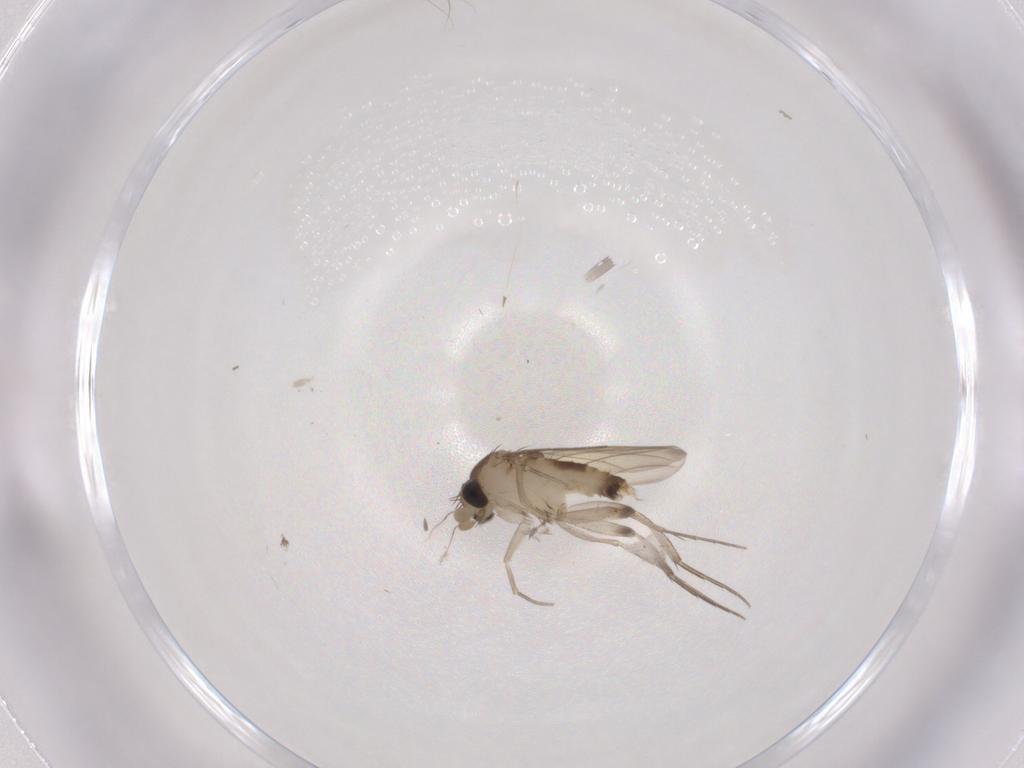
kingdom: Animalia
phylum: Arthropoda
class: Insecta
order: Diptera
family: Phoridae
